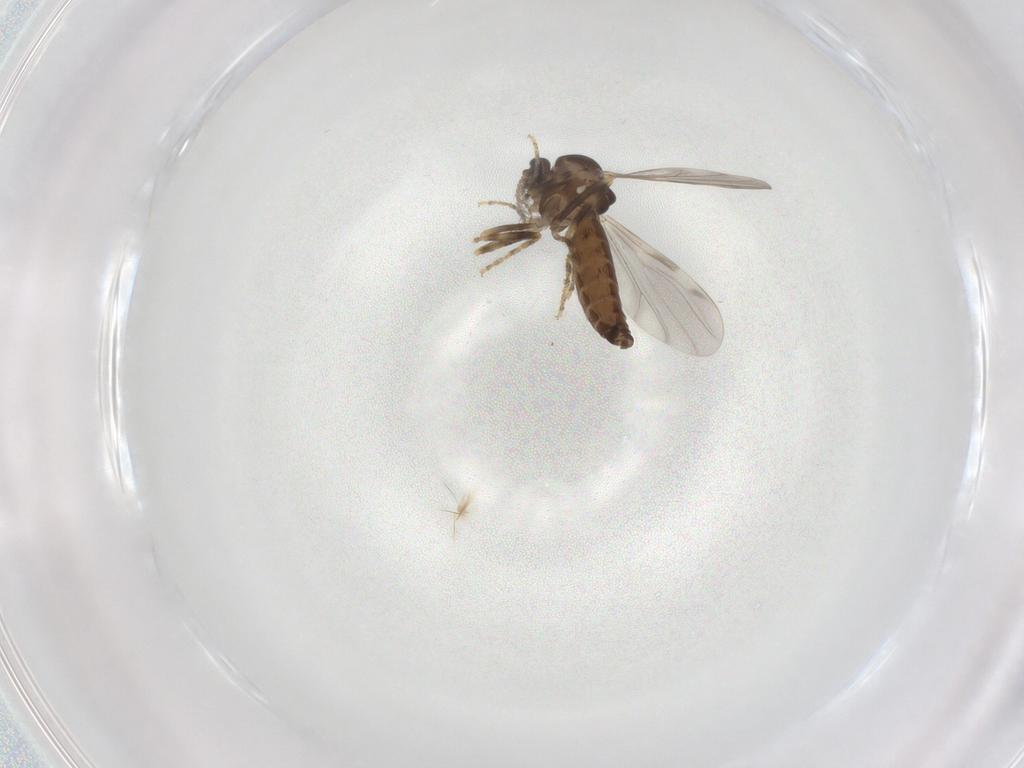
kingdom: Animalia
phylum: Arthropoda
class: Insecta
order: Diptera
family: Ceratopogonidae
